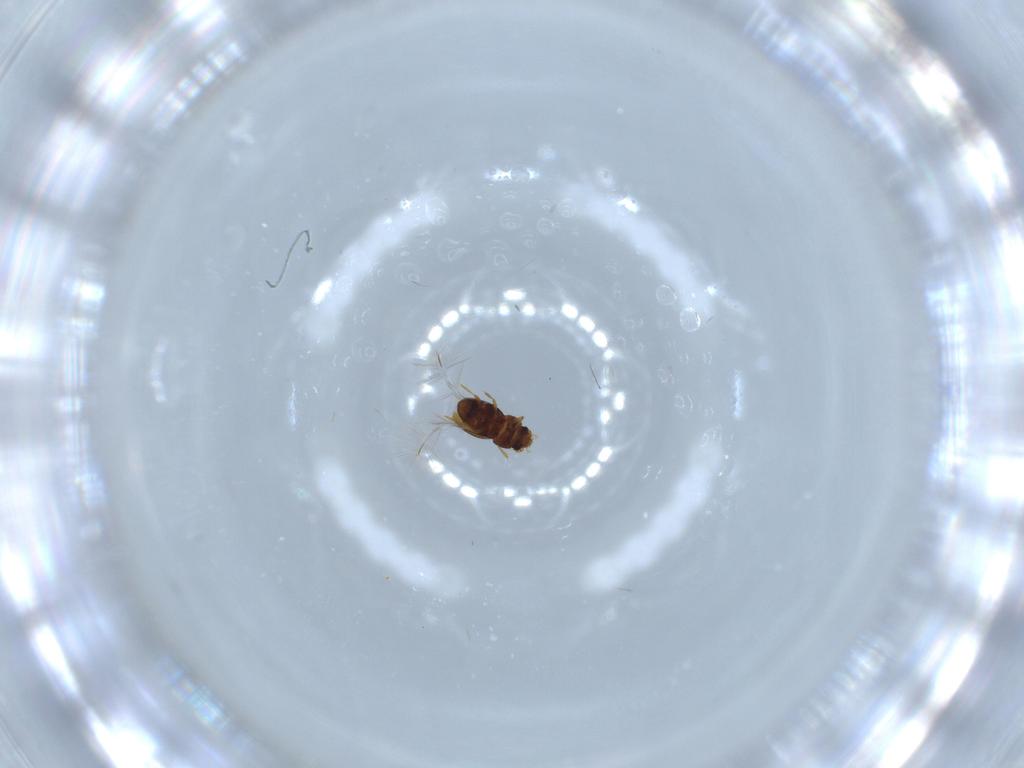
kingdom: Animalia
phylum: Arthropoda
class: Insecta
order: Coleoptera
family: Ptiliidae
